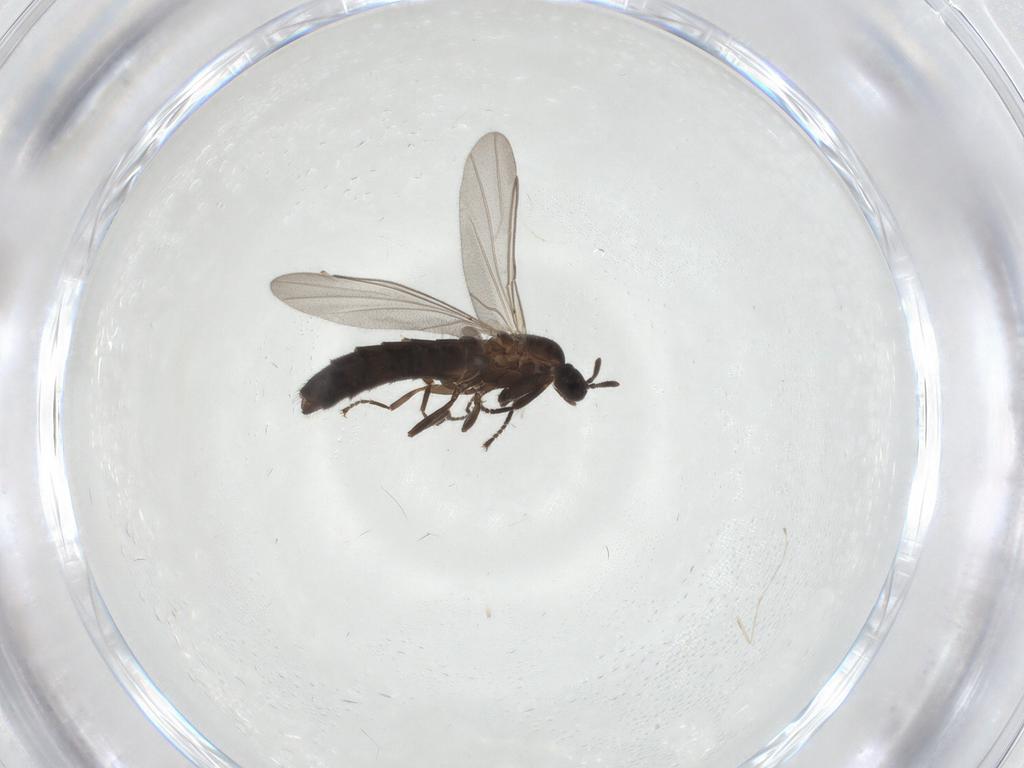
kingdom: Animalia
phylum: Arthropoda
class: Insecta
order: Diptera
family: Scatopsidae
